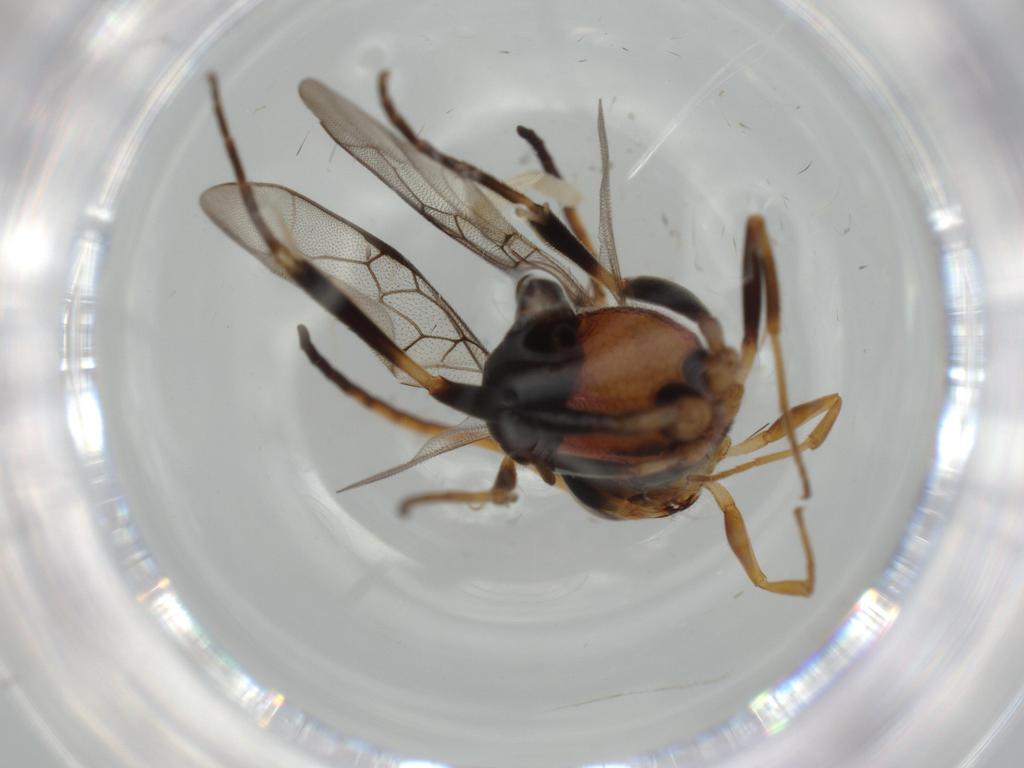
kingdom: Animalia
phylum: Arthropoda
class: Insecta
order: Hymenoptera
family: Evaniidae
